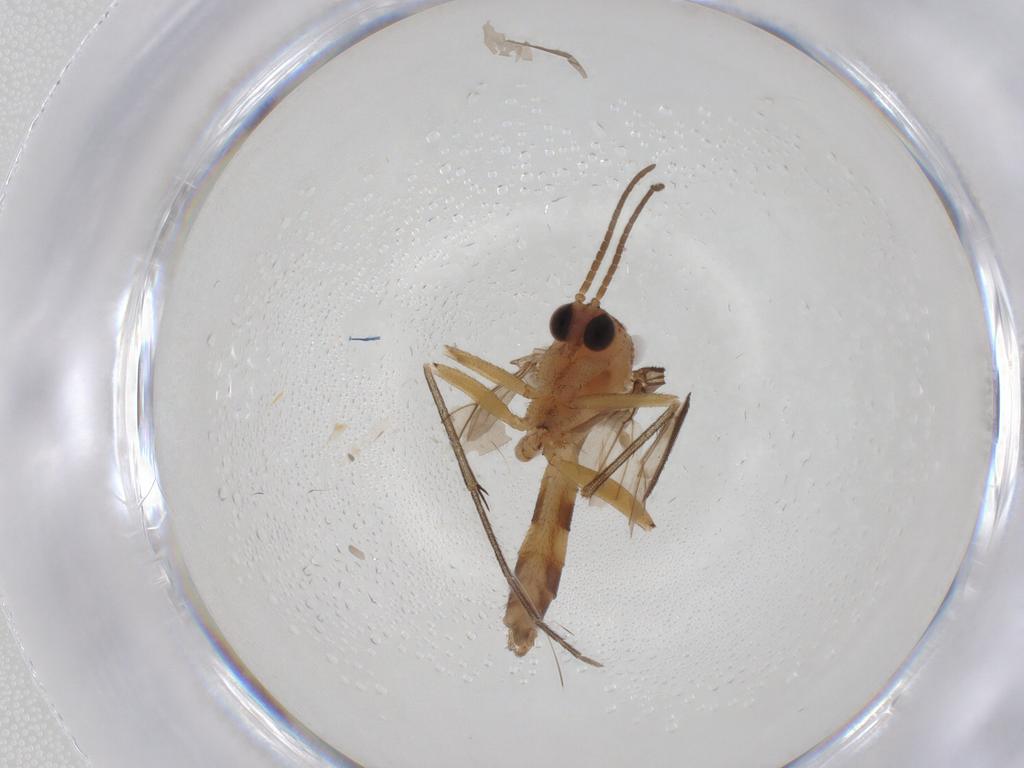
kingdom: Animalia
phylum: Arthropoda
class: Insecta
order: Diptera
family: Mycetophilidae
